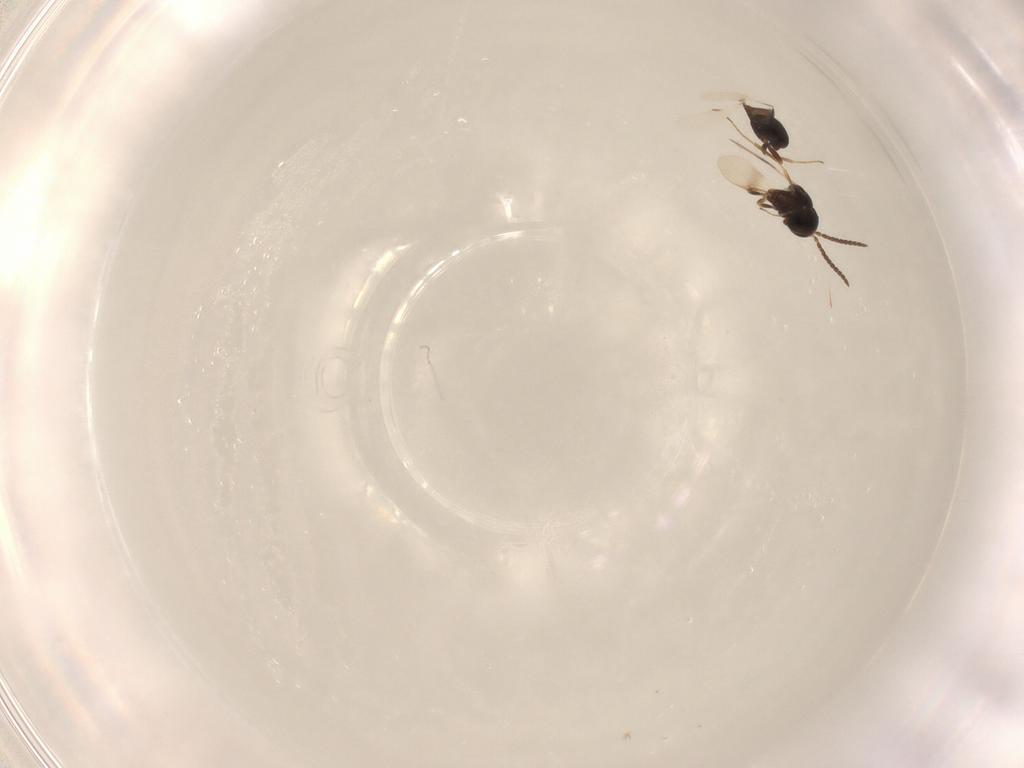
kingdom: Animalia
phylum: Arthropoda
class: Insecta
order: Hymenoptera
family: Scelionidae
